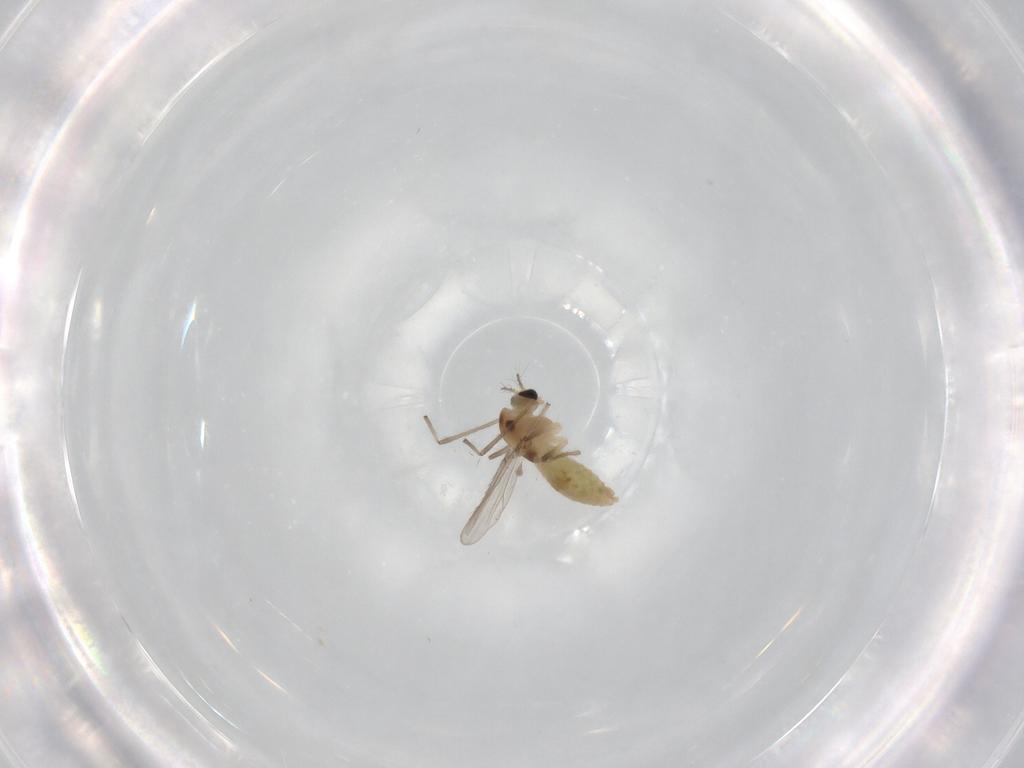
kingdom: Animalia
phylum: Arthropoda
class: Insecta
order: Diptera
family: Chironomidae
